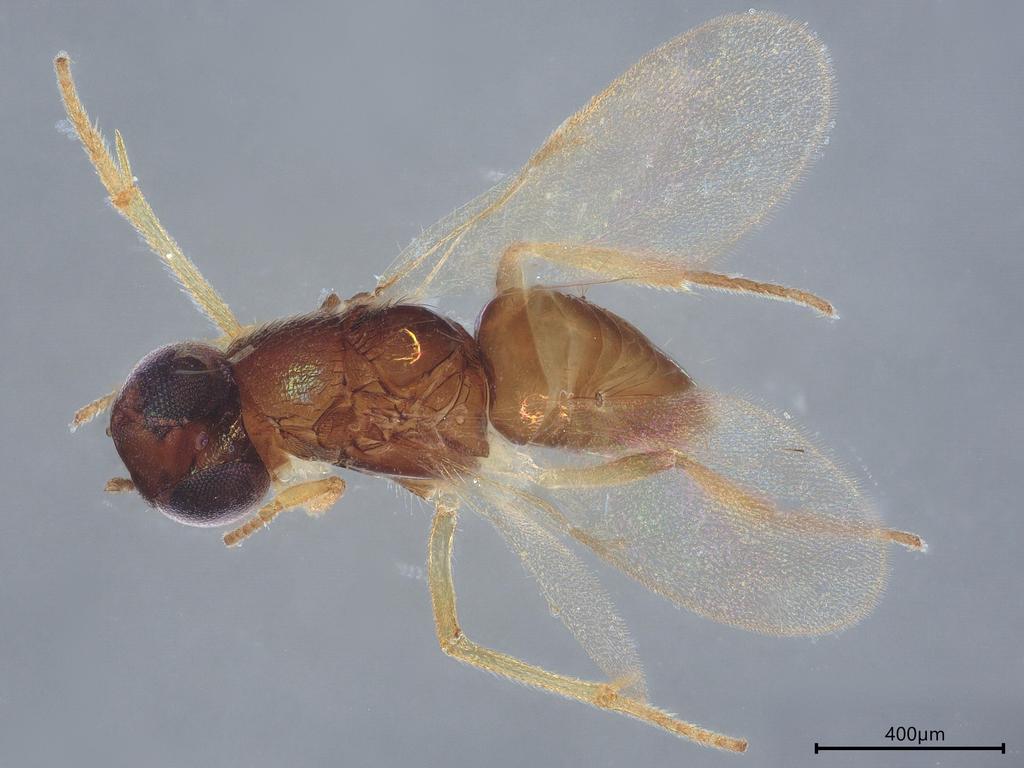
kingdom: Animalia
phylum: Arthropoda
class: Insecta
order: Hymenoptera
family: Mymaridae
